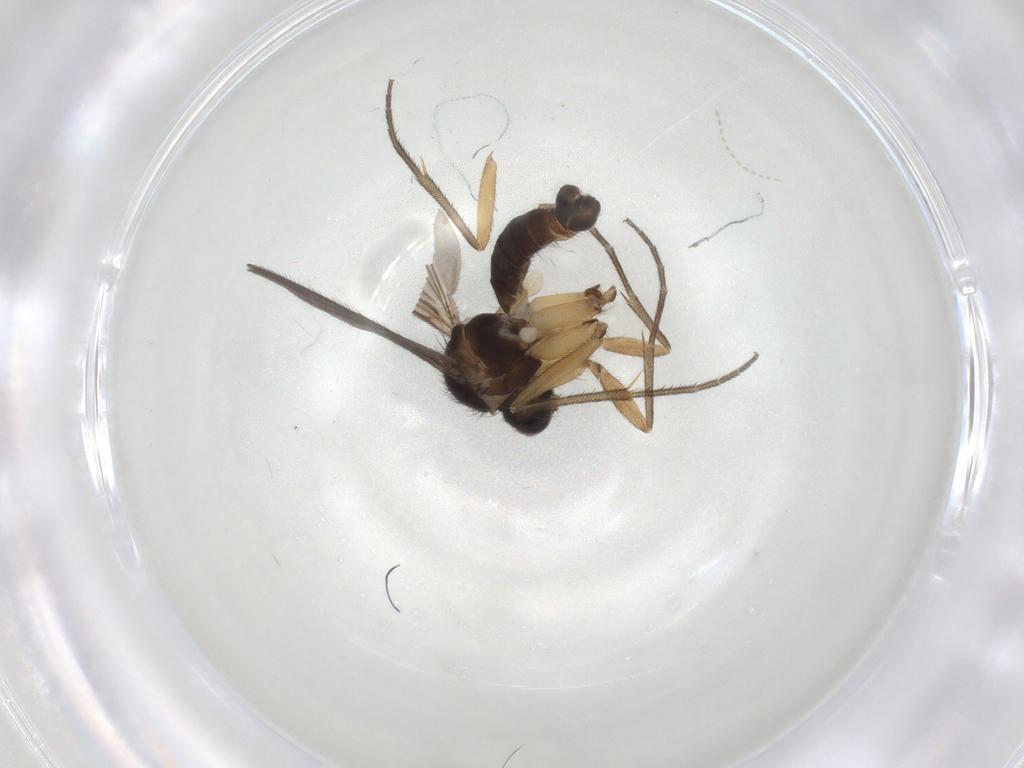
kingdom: Animalia
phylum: Arthropoda
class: Insecta
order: Diptera
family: Mycetophilidae
